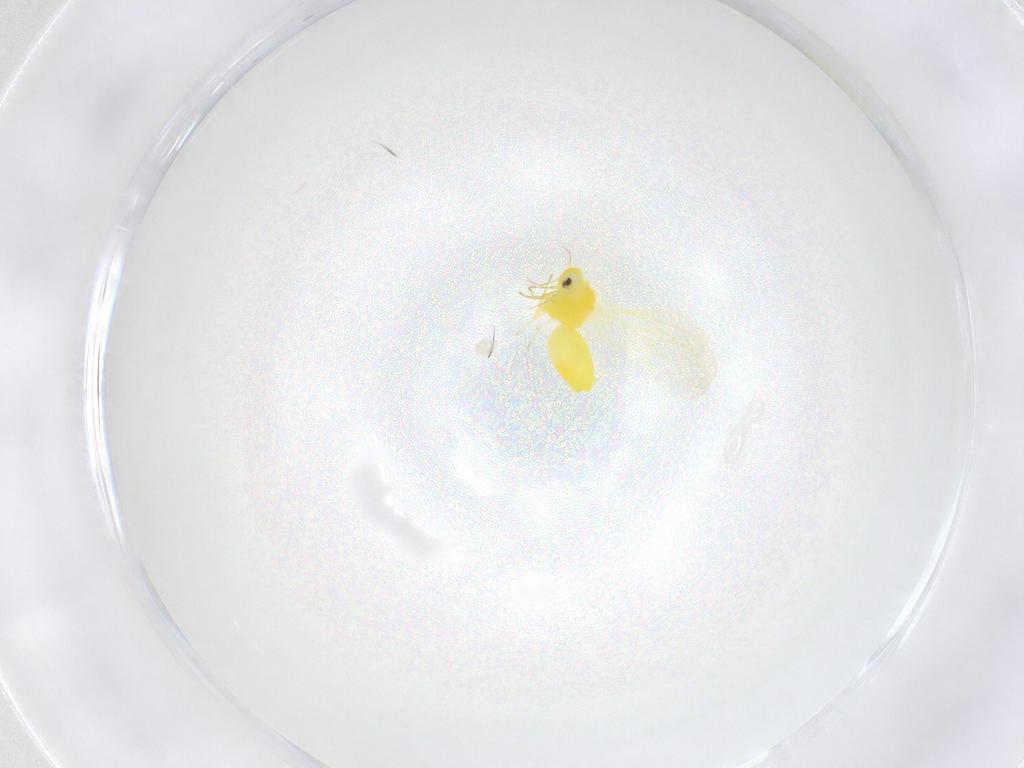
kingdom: Animalia
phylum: Arthropoda
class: Insecta
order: Hemiptera
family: Aleyrodidae
